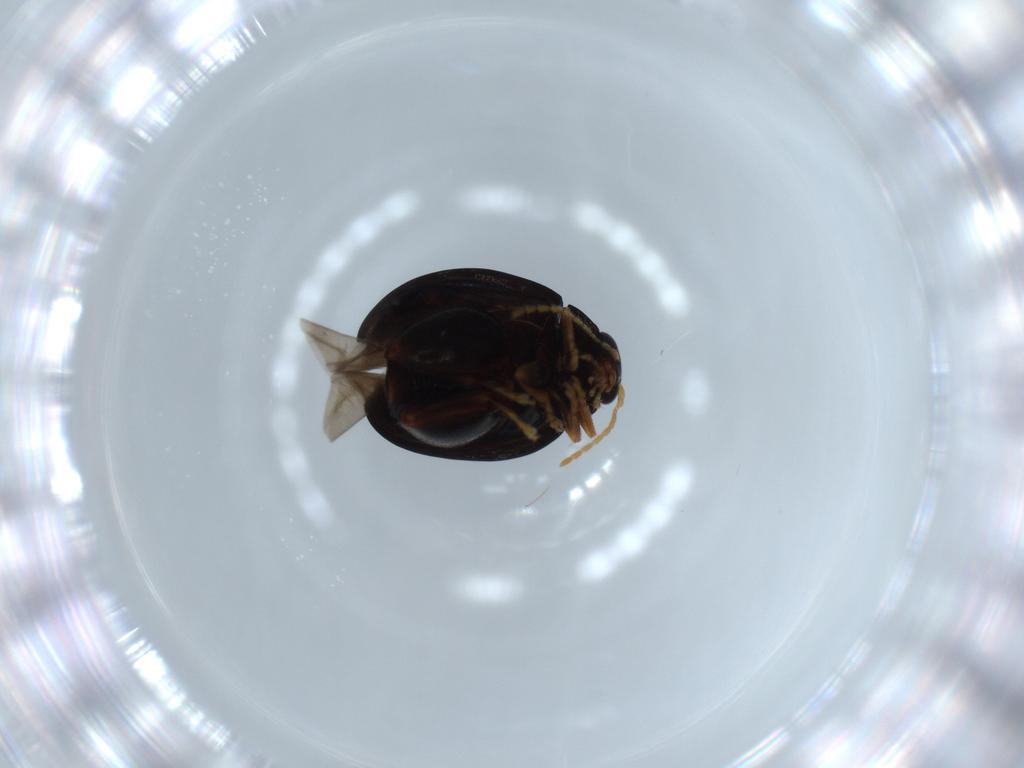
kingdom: Animalia
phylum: Arthropoda
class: Insecta
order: Coleoptera
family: Chrysomelidae
